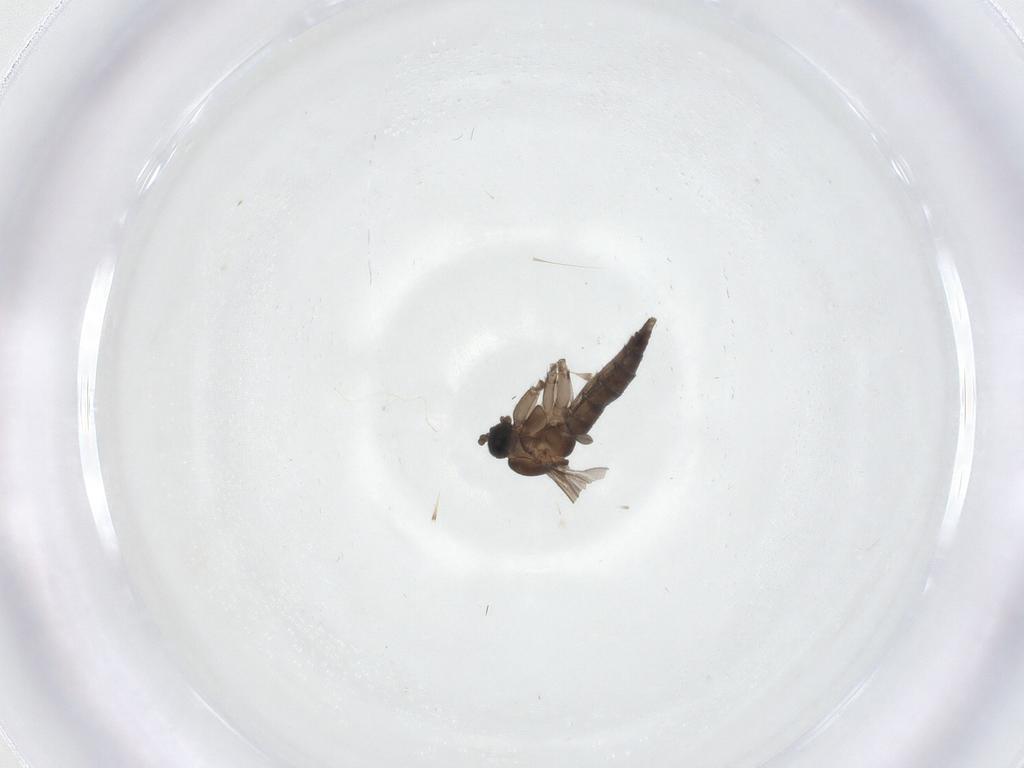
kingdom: Animalia
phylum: Arthropoda
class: Insecta
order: Diptera
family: Sciaridae
